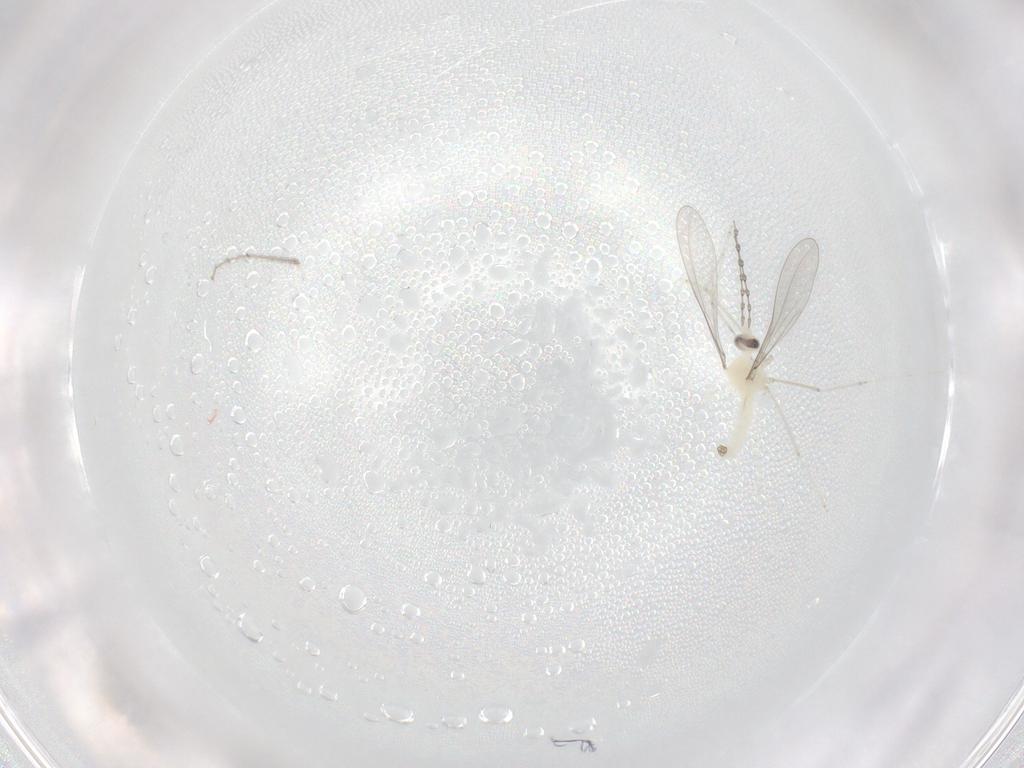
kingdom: Animalia
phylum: Arthropoda
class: Insecta
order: Diptera
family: Cecidomyiidae
